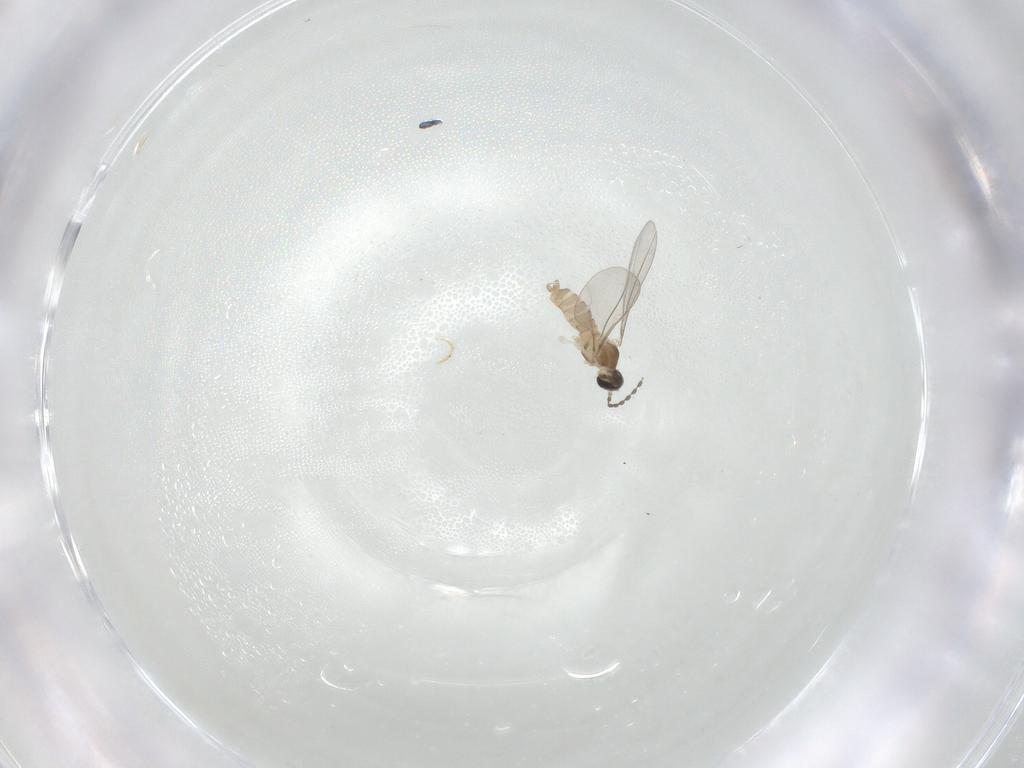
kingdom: Animalia
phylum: Arthropoda
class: Insecta
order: Diptera
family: Cecidomyiidae
